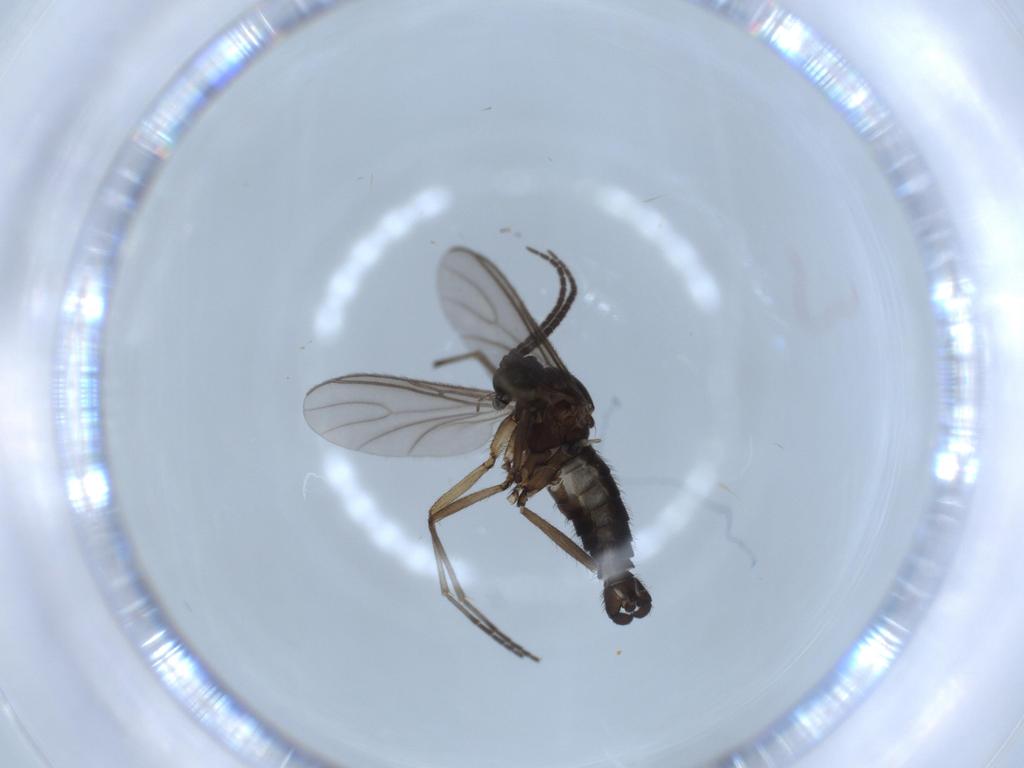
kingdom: Animalia
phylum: Arthropoda
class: Insecta
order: Diptera
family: Sciaridae
